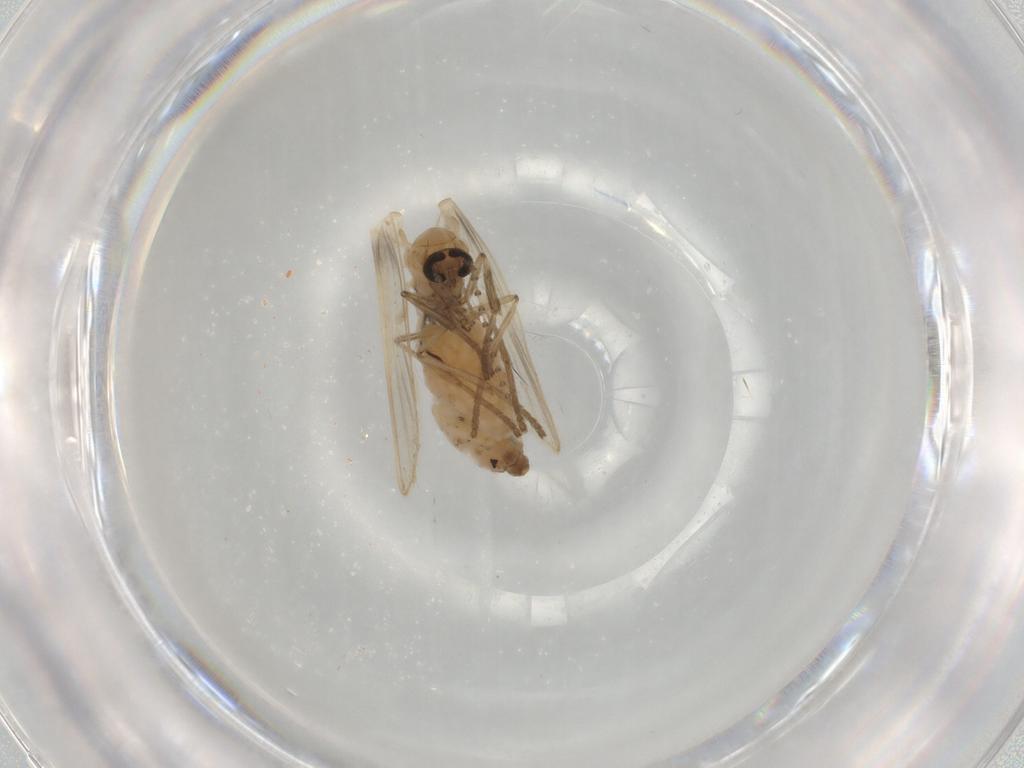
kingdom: Animalia
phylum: Arthropoda
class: Insecta
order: Diptera
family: Psychodidae
